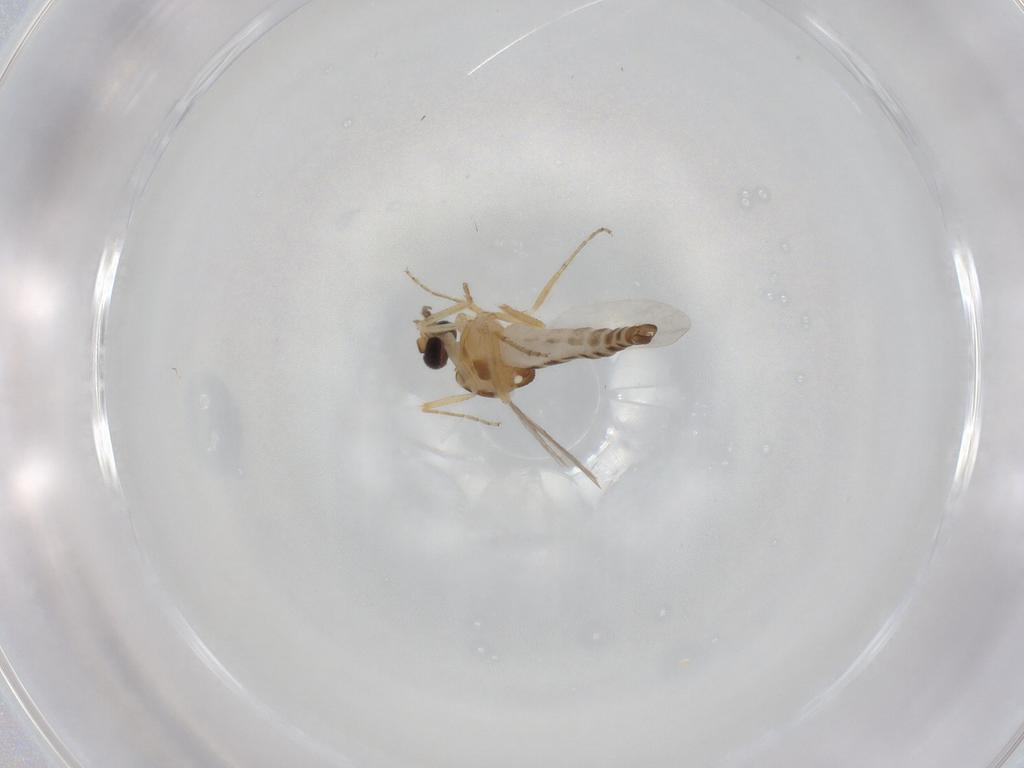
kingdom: Animalia
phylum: Arthropoda
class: Insecta
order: Diptera
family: Ceratopogonidae
